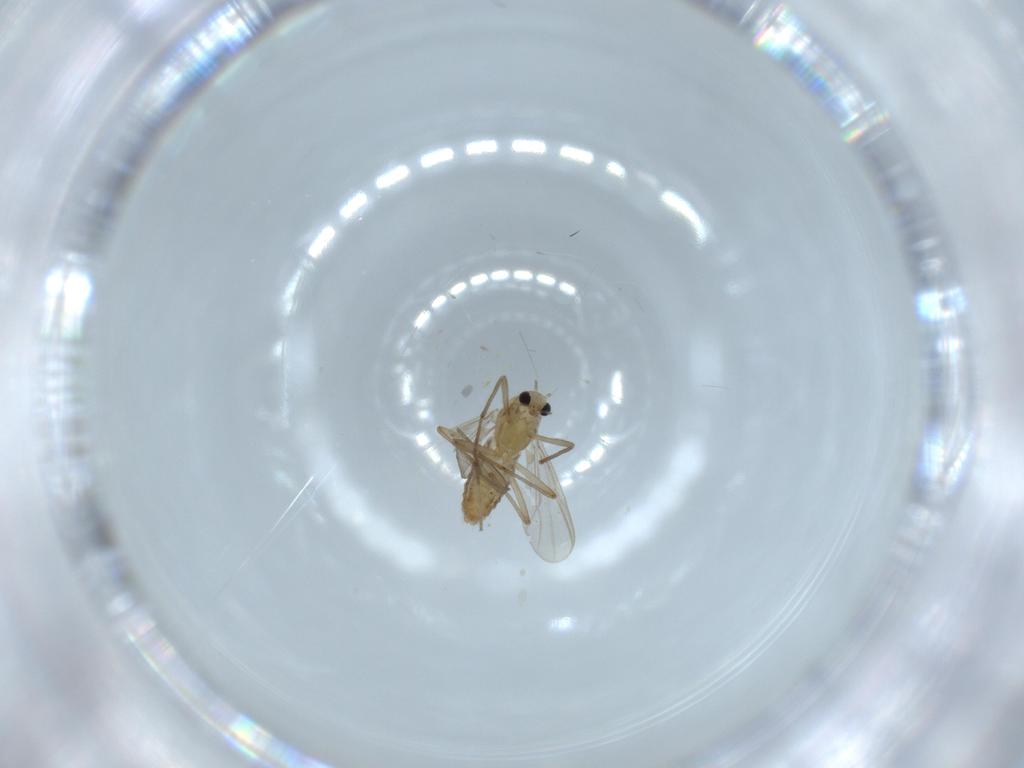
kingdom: Animalia
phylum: Arthropoda
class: Insecta
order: Diptera
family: Chironomidae
